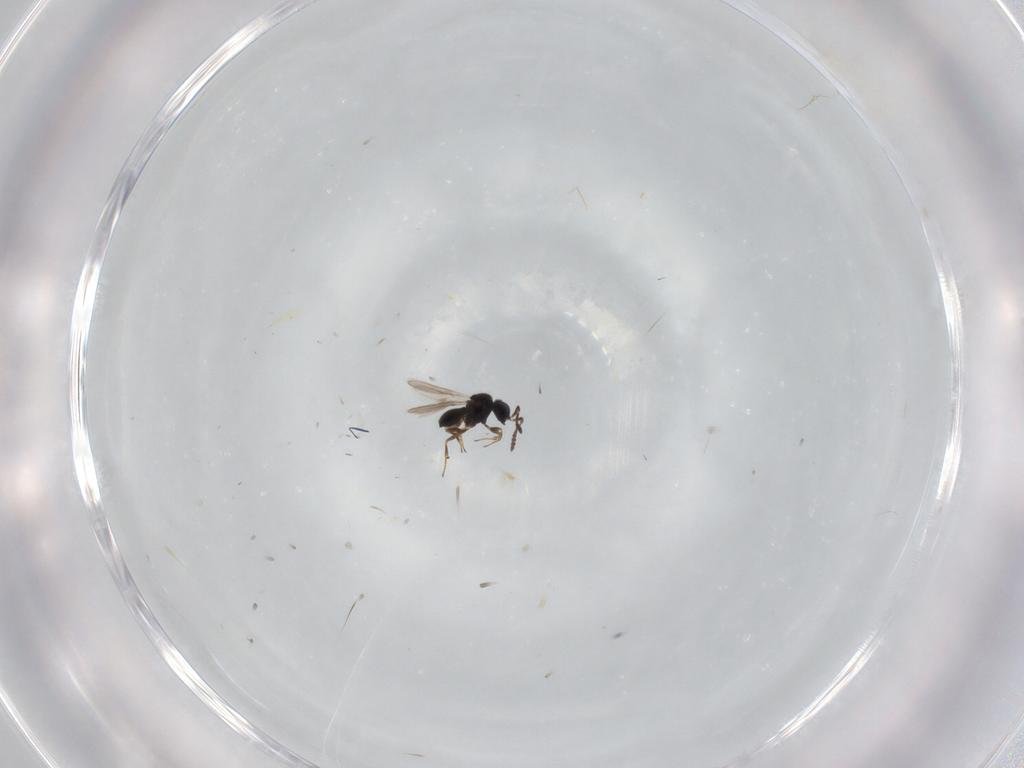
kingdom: Animalia
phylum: Arthropoda
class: Insecta
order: Hymenoptera
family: Scelionidae
